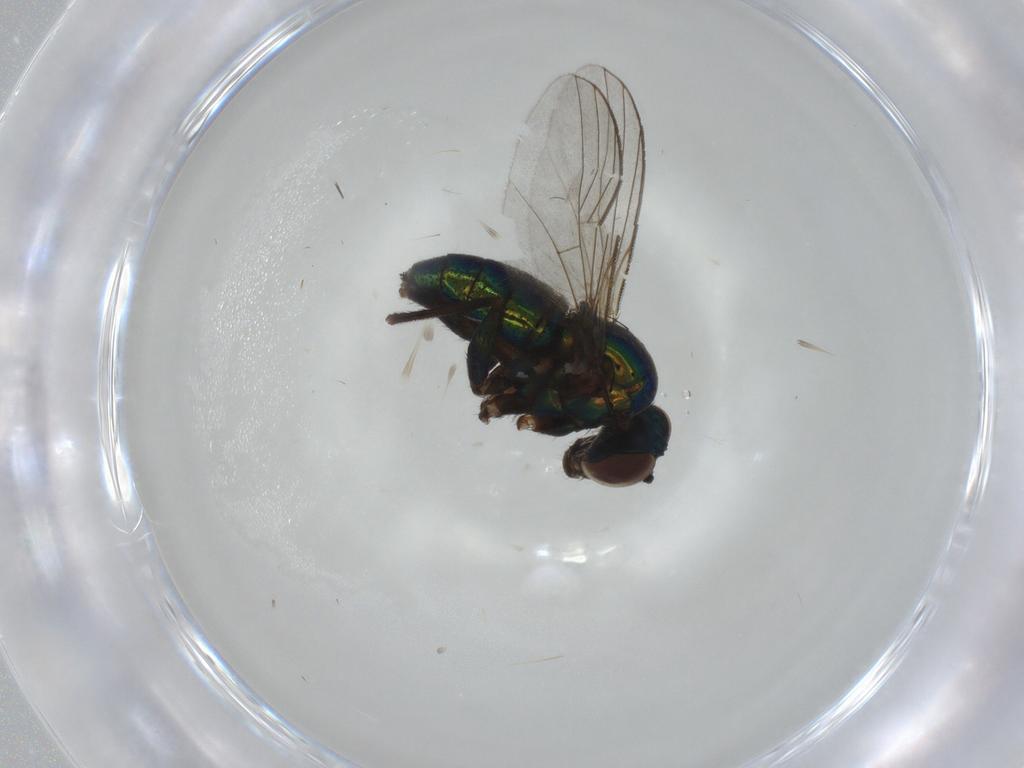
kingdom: Animalia
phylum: Arthropoda
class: Insecta
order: Diptera
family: Dolichopodidae
